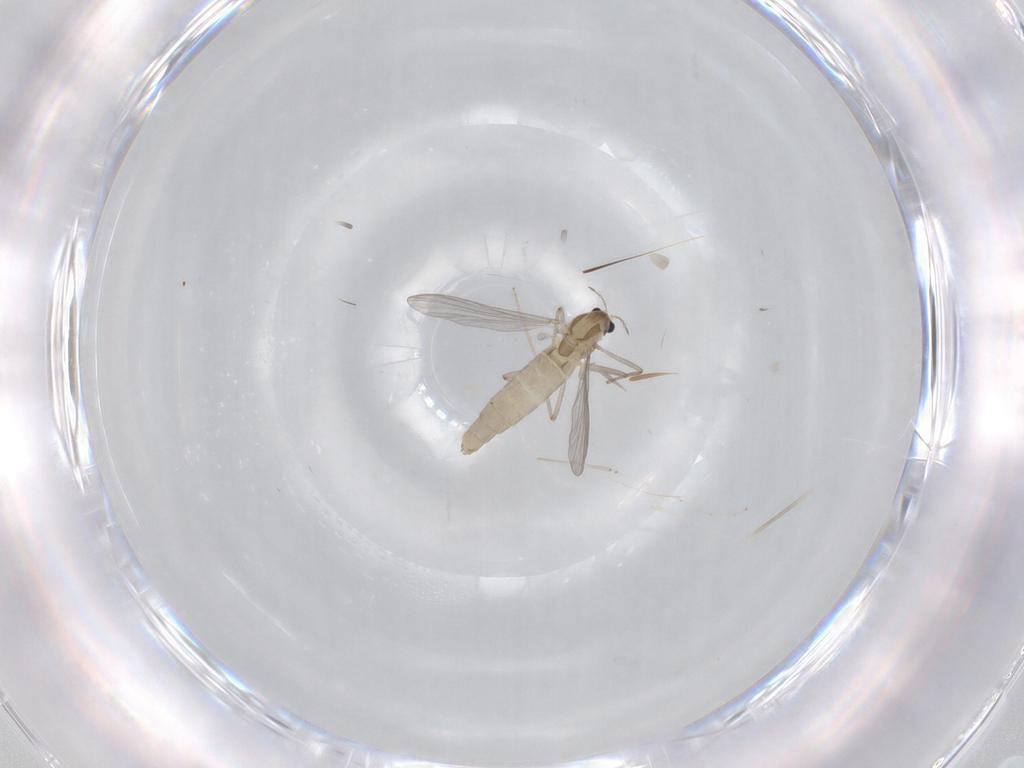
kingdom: Animalia
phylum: Arthropoda
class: Insecta
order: Diptera
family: Chironomidae
